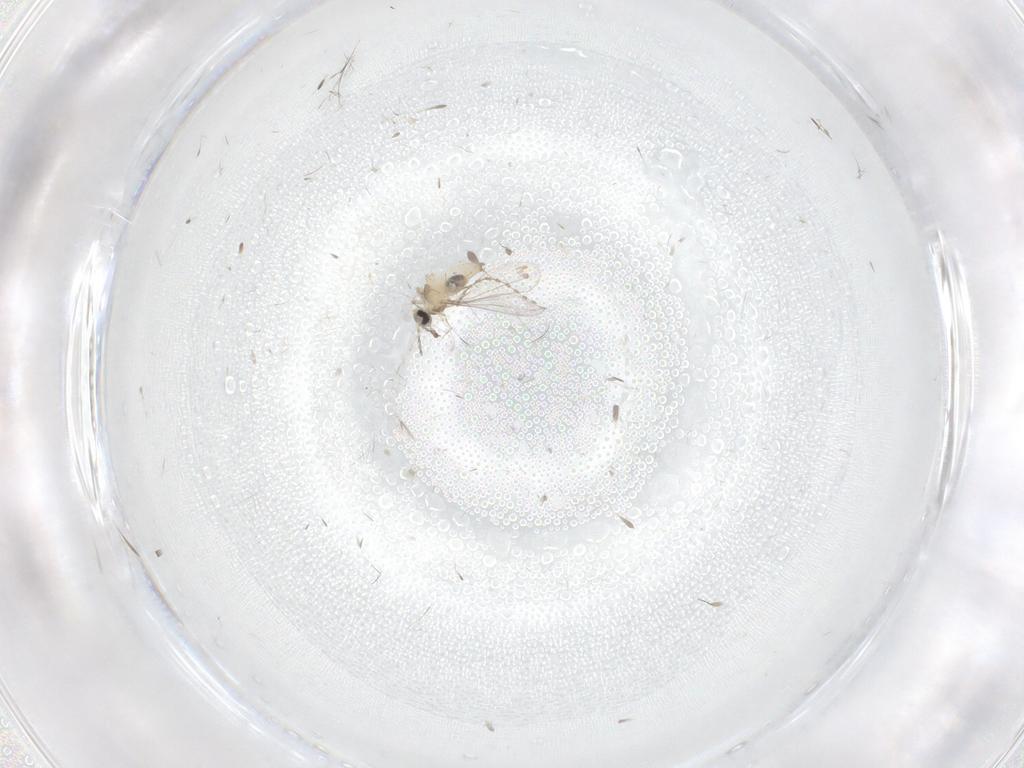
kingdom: Animalia
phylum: Arthropoda
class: Insecta
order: Diptera
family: Cecidomyiidae
